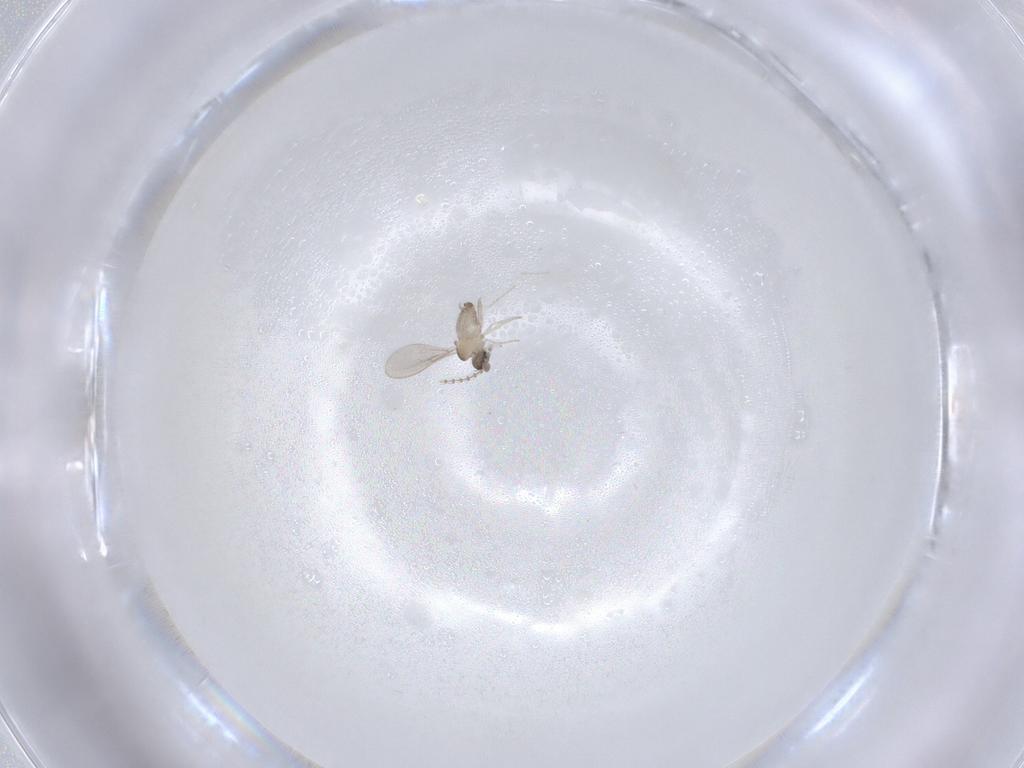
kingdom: Animalia
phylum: Arthropoda
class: Insecta
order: Diptera
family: Cecidomyiidae
